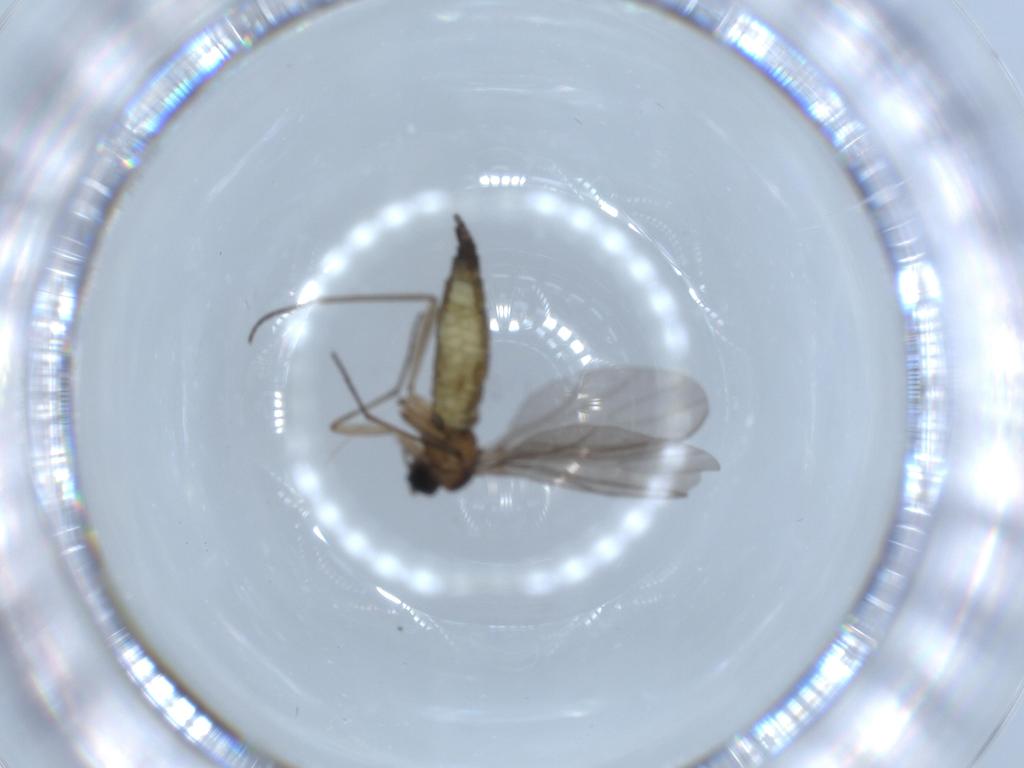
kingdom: Animalia
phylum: Arthropoda
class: Insecta
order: Diptera
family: Sciaridae
